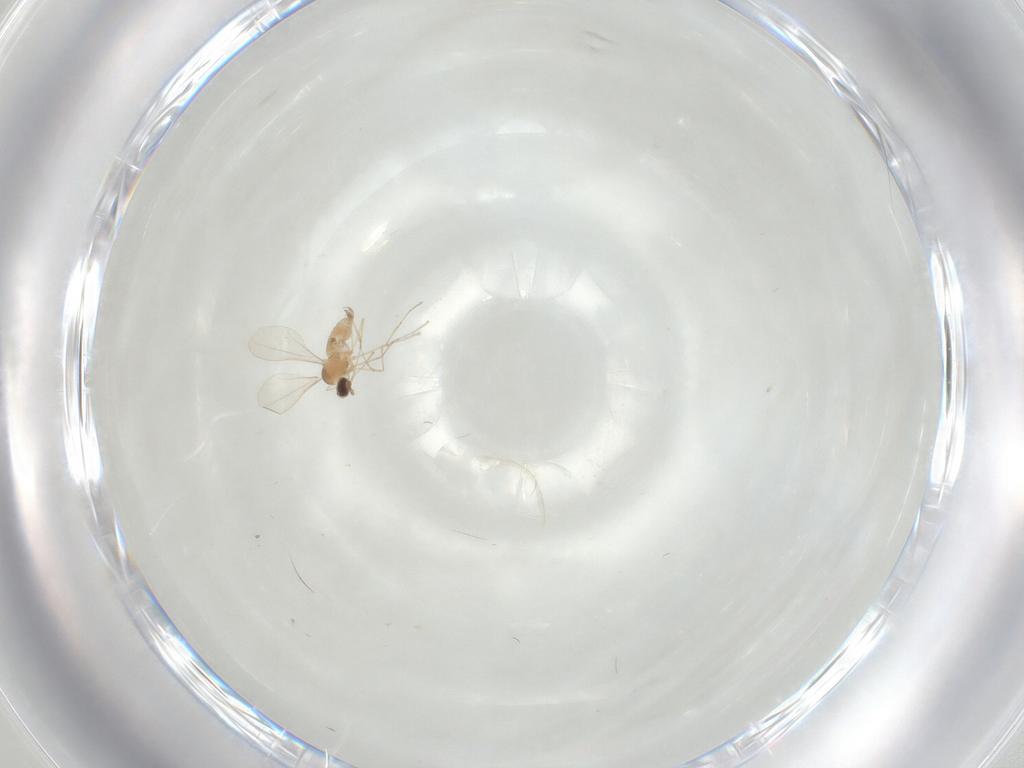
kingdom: Animalia
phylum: Arthropoda
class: Insecta
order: Diptera
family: Cecidomyiidae
